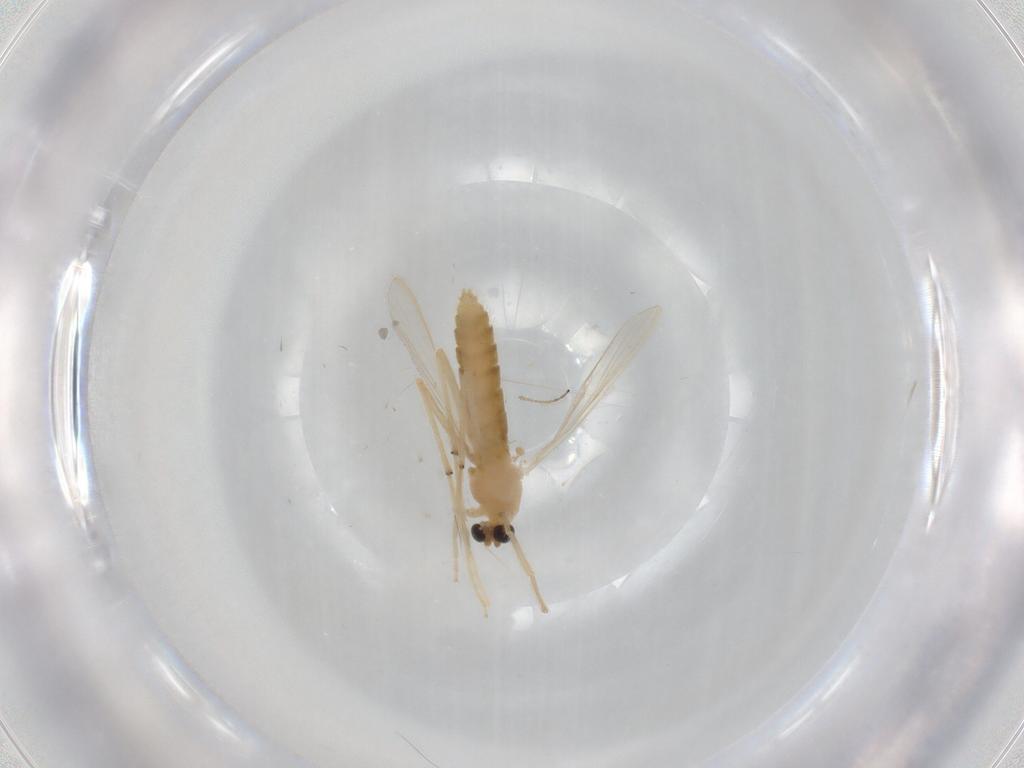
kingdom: Animalia
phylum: Arthropoda
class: Insecta
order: Diptera
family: Chironomidae
